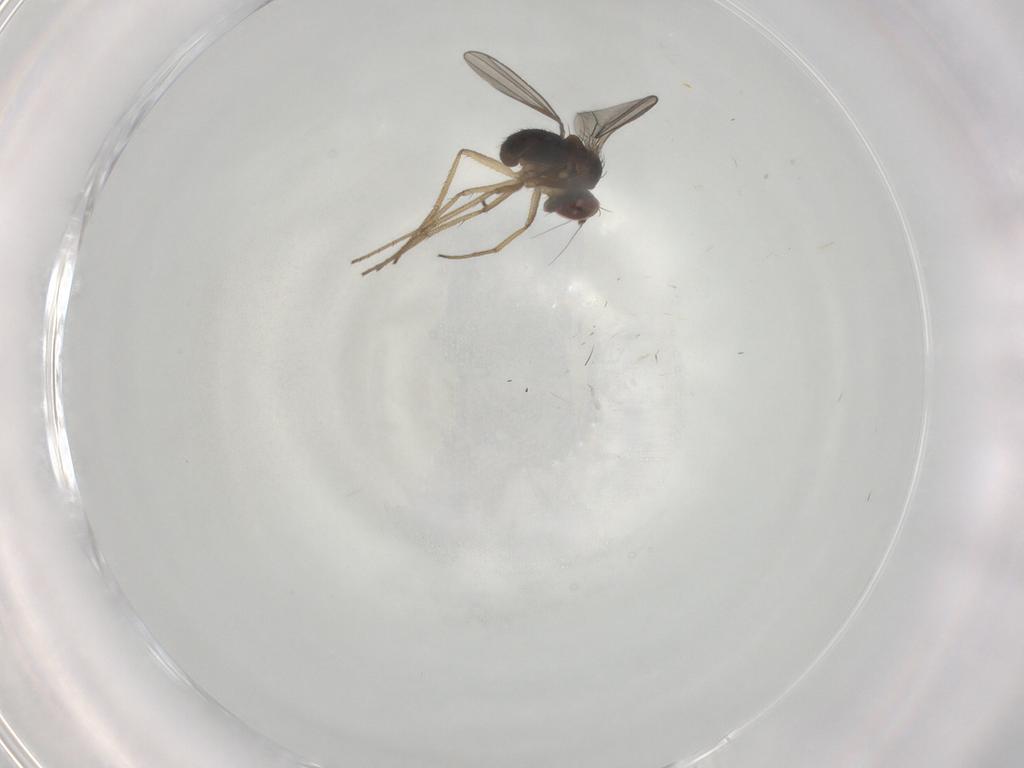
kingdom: Animalia
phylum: Arthropoda
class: Insecta
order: Diptera
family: Dolichopodidae
